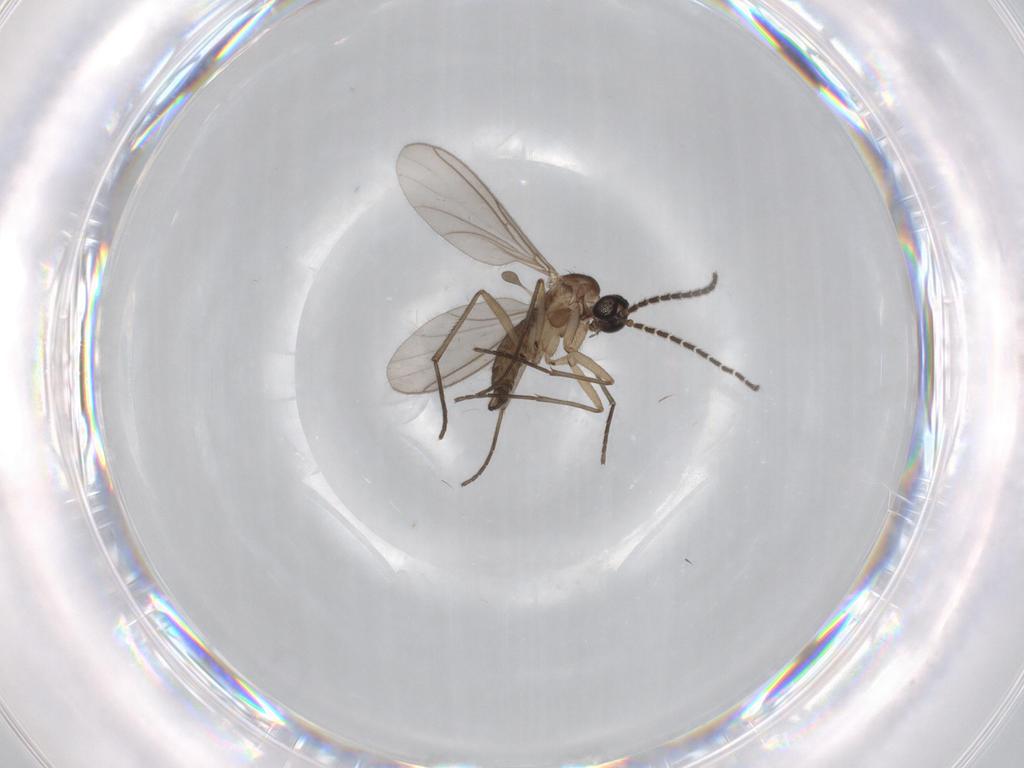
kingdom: Animalia
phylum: Arthropoda
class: Insecta
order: Diptera
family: Sciaridae
